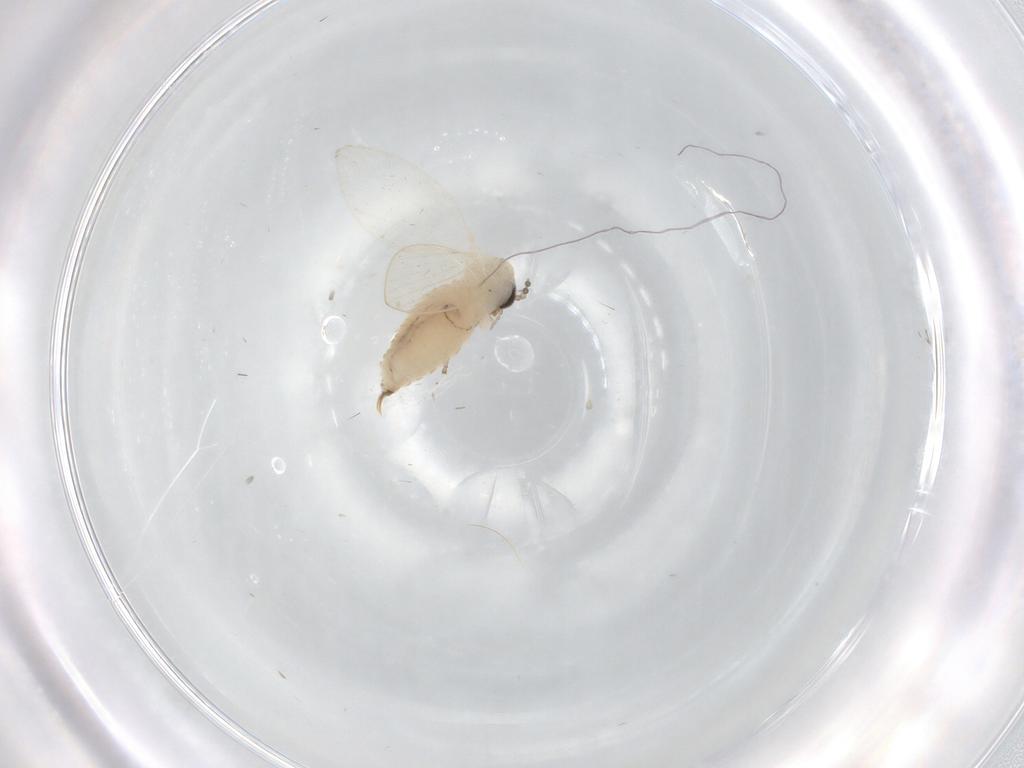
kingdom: Animalia
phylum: Arthropoda
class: Insecta
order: Diptera
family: Psychodidae
